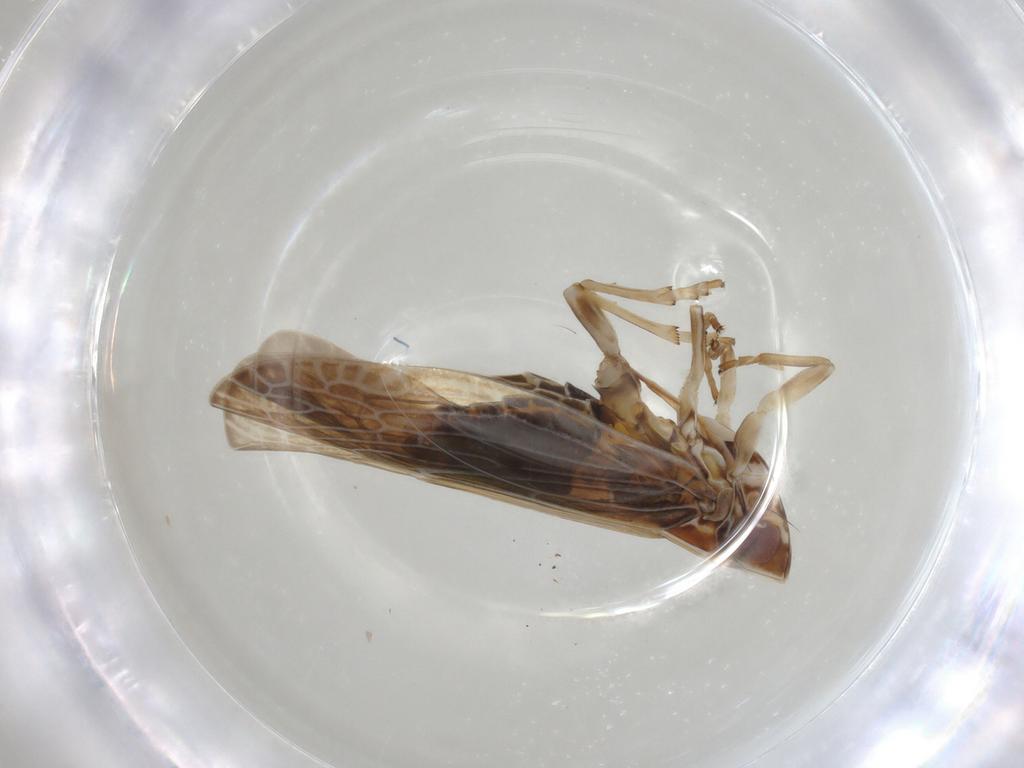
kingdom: Animalia
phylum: Arthropoda
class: Insecta
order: Hemiptera
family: Achilidae
